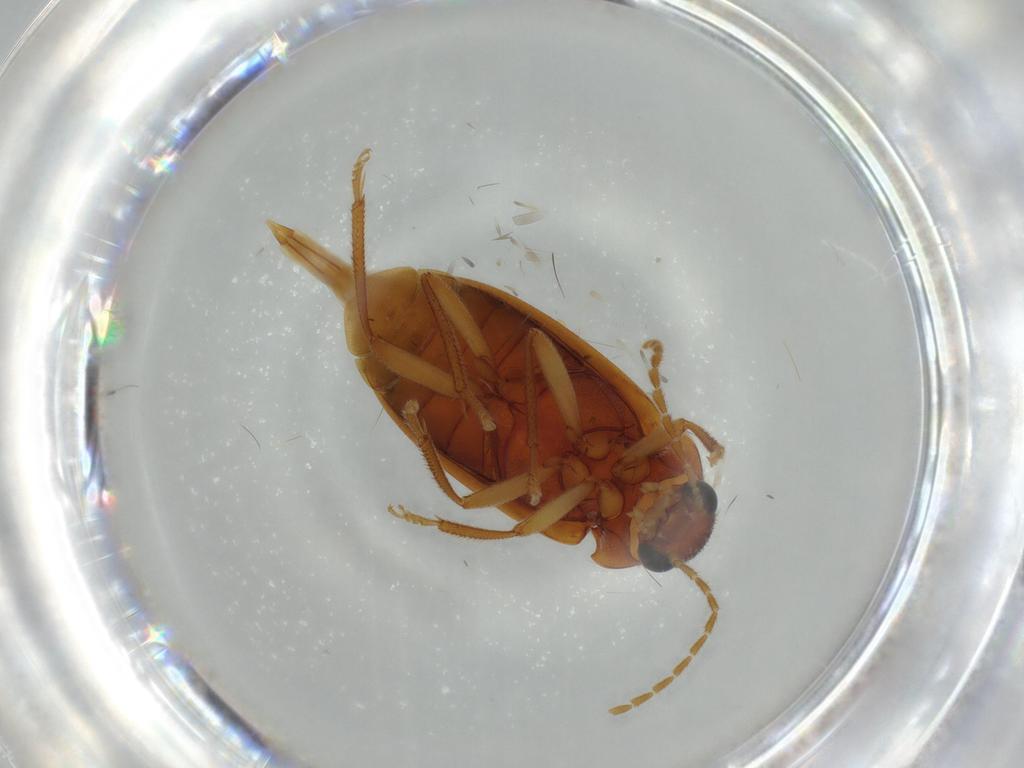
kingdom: Animalia
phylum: Arthropoda
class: Insecta
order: Coleoptera
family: Ptilodactylidae
